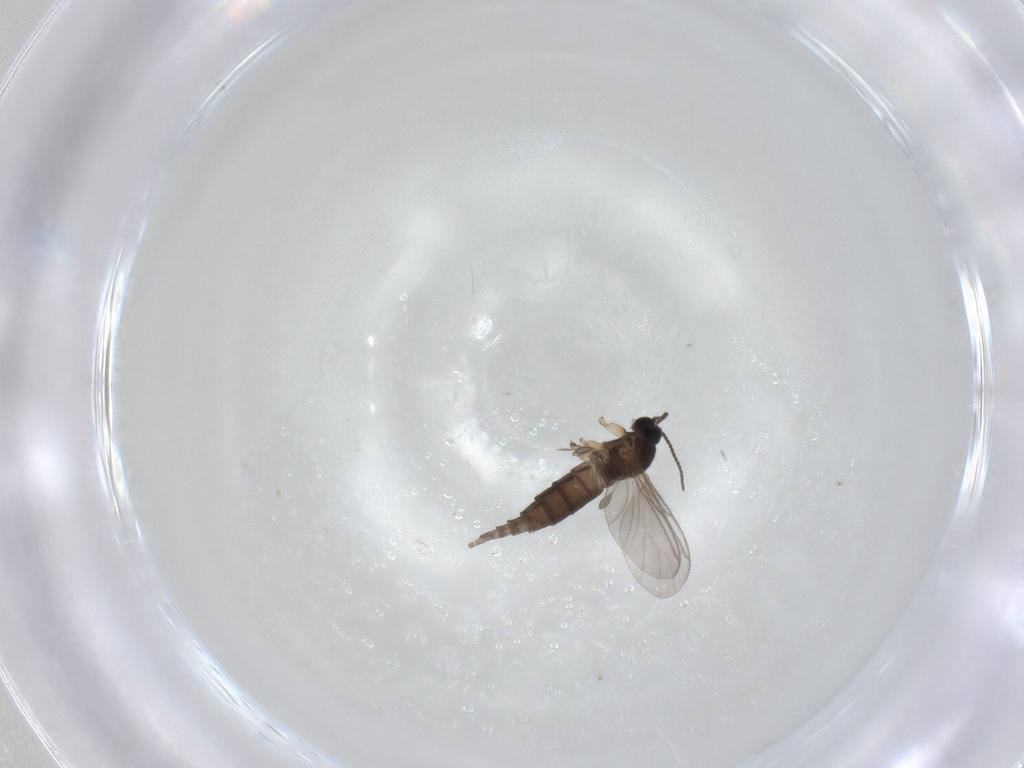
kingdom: Animalia
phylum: Arthropoda
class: Insecta
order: Diptera
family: Sciaridae
